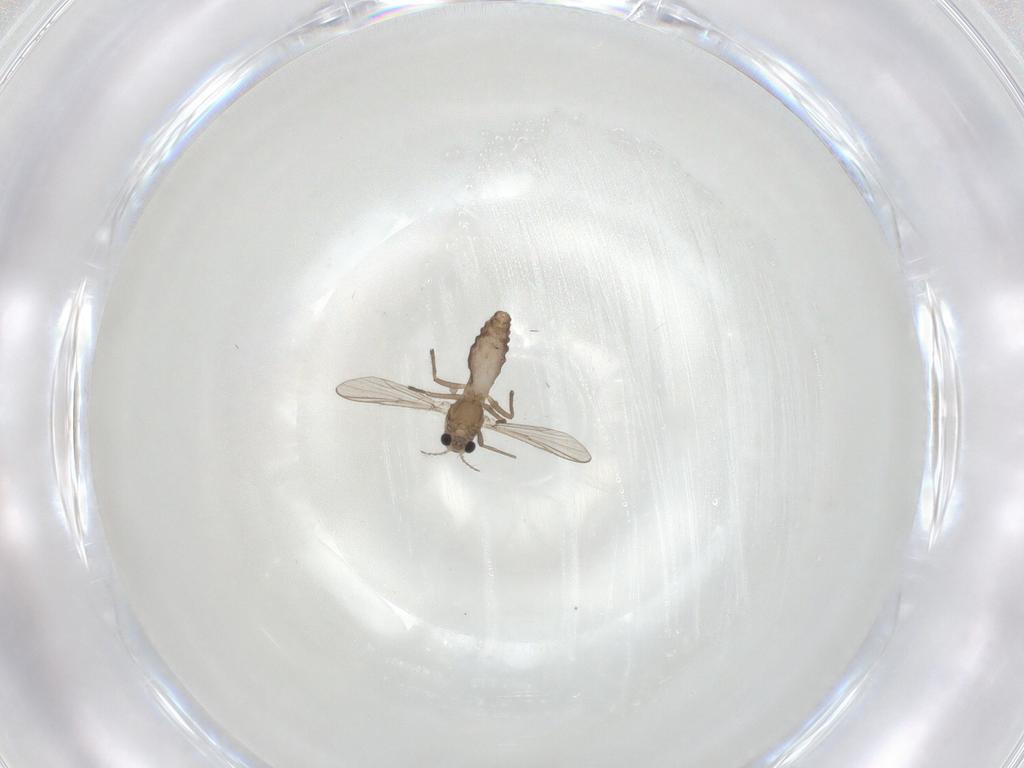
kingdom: Animalia
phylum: Arthropoda
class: Insecta
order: Diptera
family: Chironomidae
